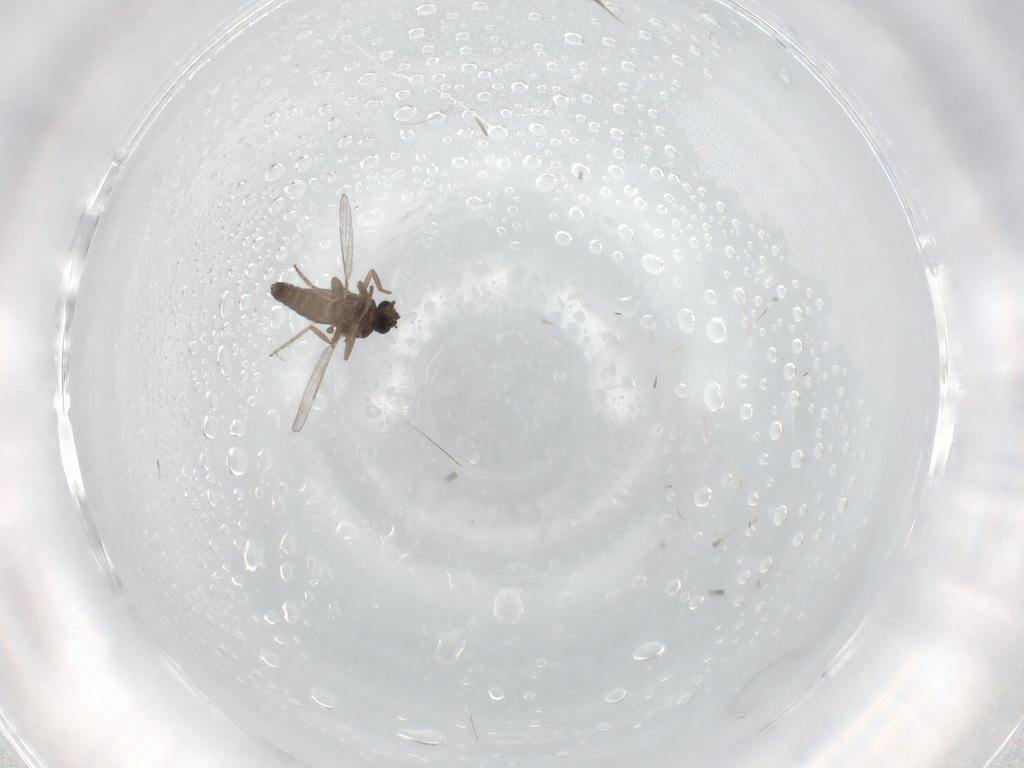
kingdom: Animalia
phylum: Arthropoda
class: Insecta
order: Diptera
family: Ceratopogonidae
